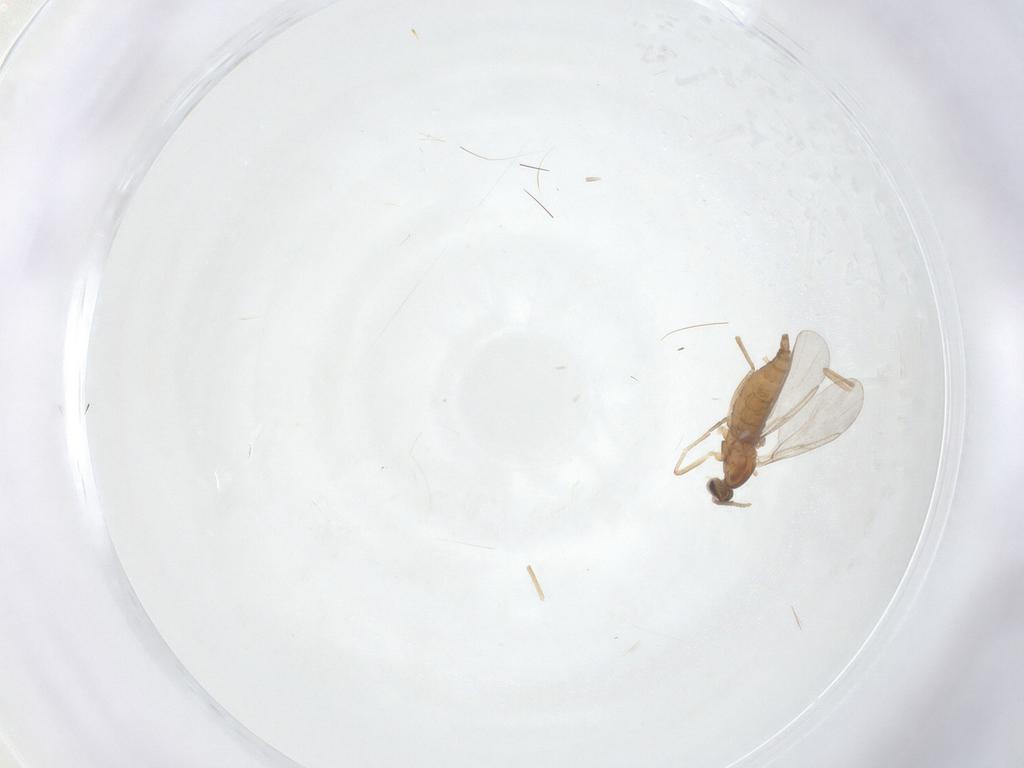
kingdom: Animalia
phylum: Arthropoda
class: Insecta
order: Diptera
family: Cecidomyiidae
